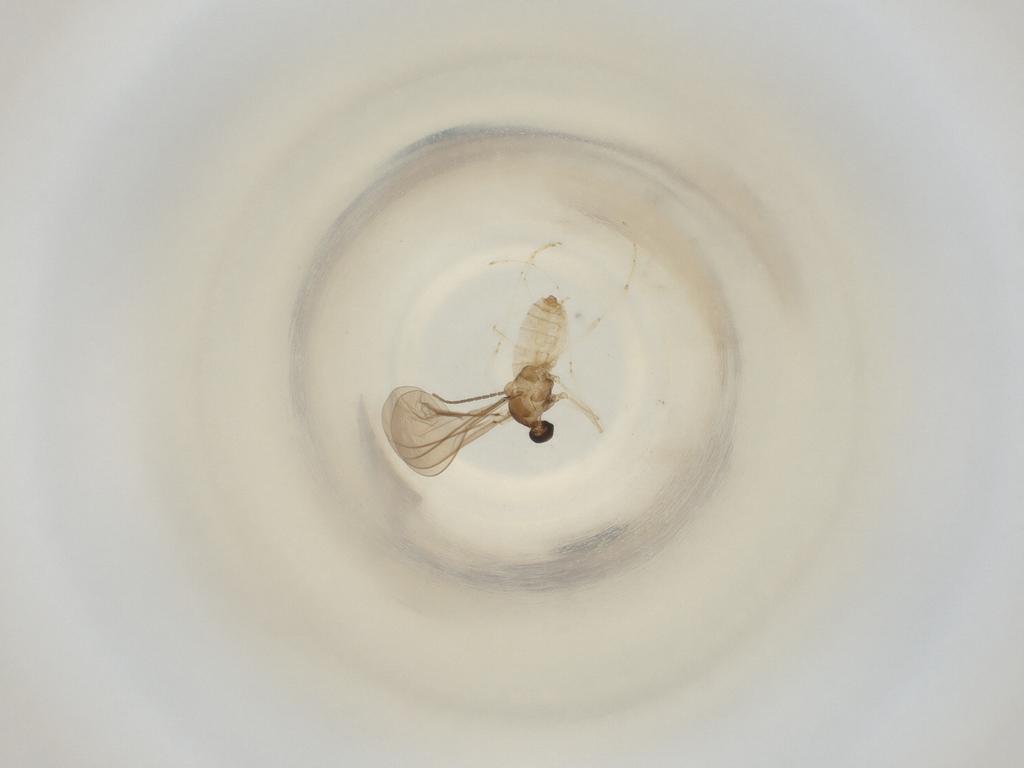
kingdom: Animalia
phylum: Arthropoda
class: Insecta
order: Diptera
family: Cecidomyiidae
